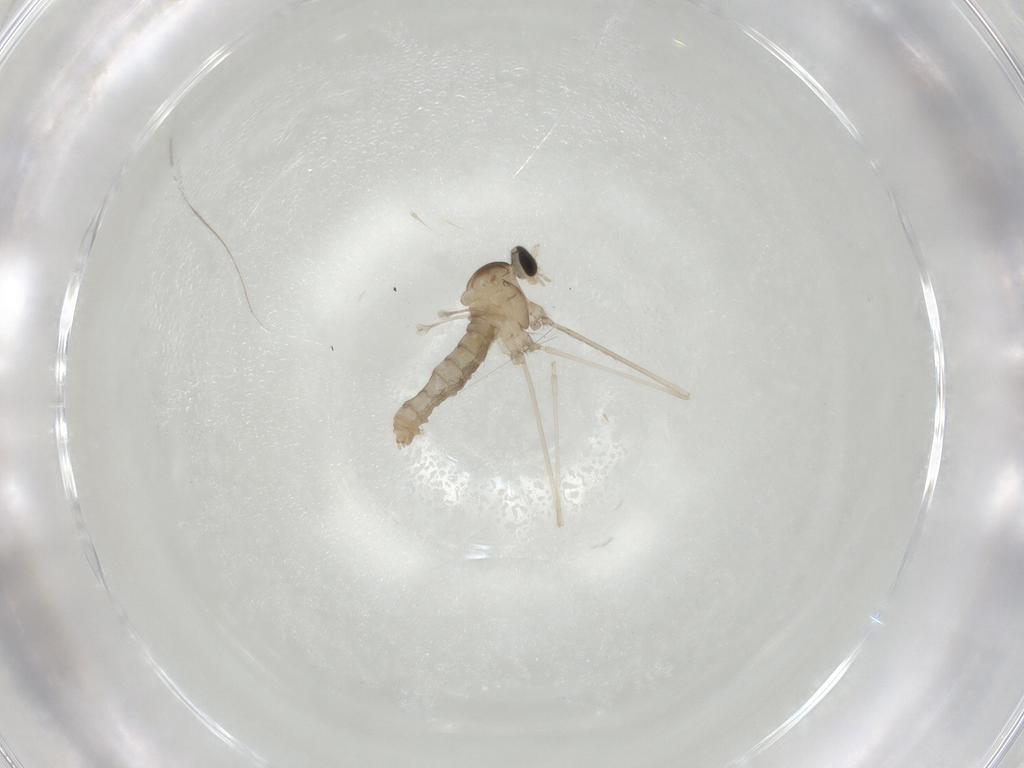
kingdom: Animalia
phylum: Arthropoda
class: Insecta
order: Diptera
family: Cecidomyiidae
